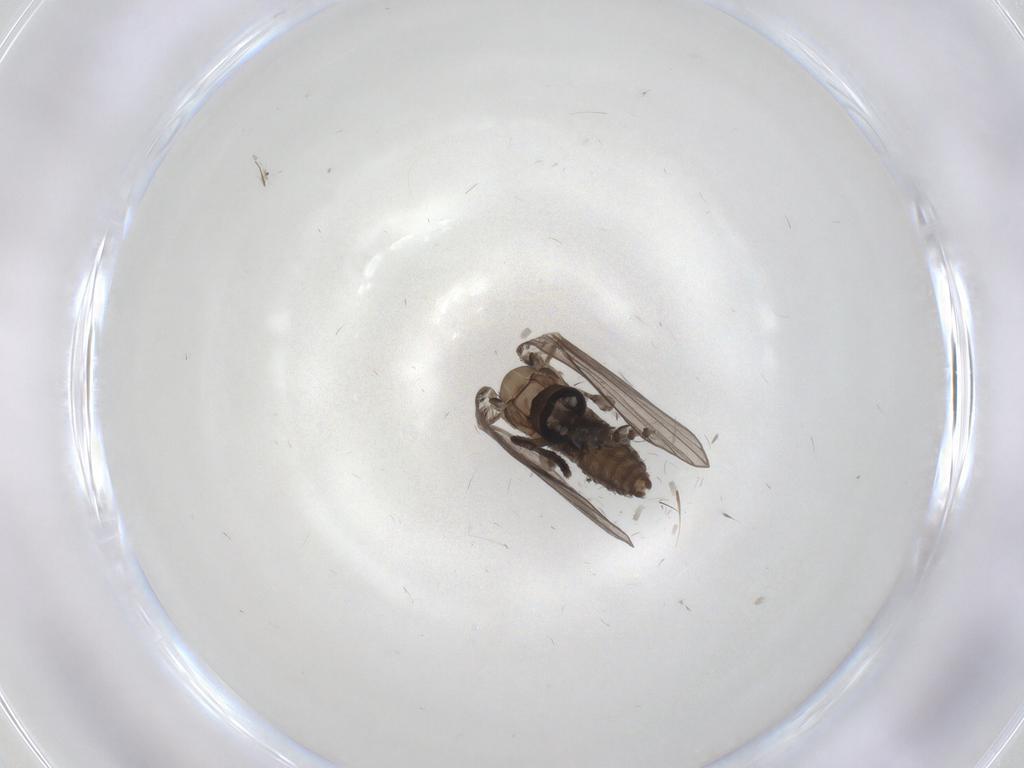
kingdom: Animalia
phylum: Arthropoda
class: Insecta
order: Diptera
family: Psychodidae
